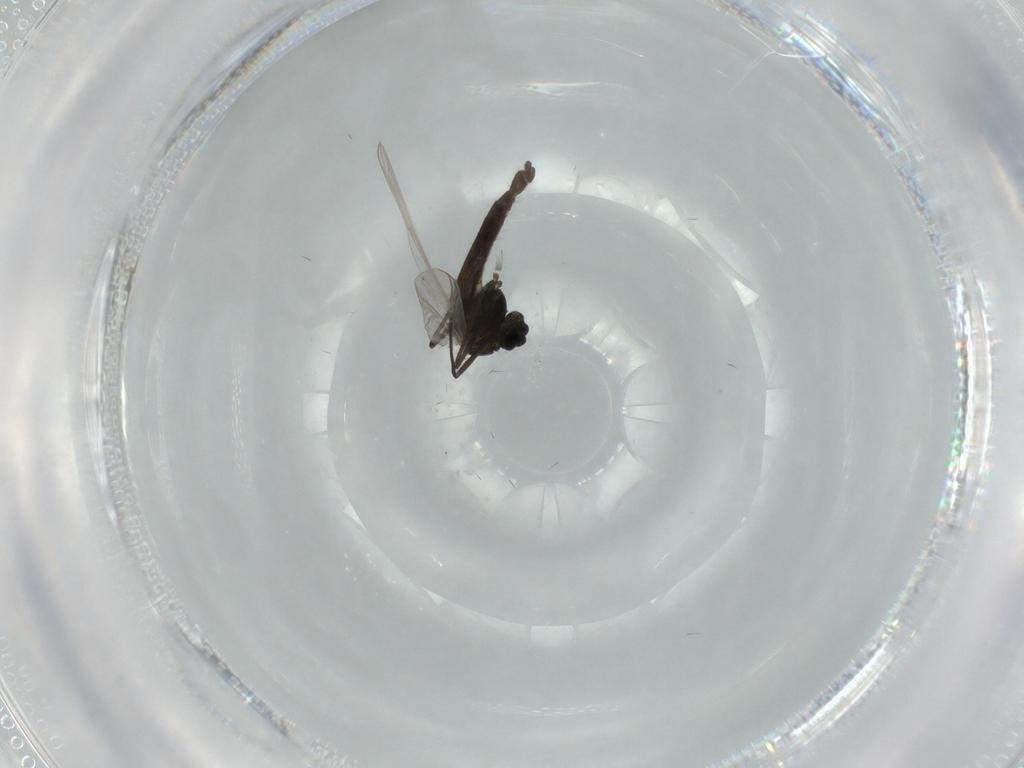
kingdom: Animalia
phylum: Arthropoda
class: Insecta
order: Diptera
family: Chironomidae
